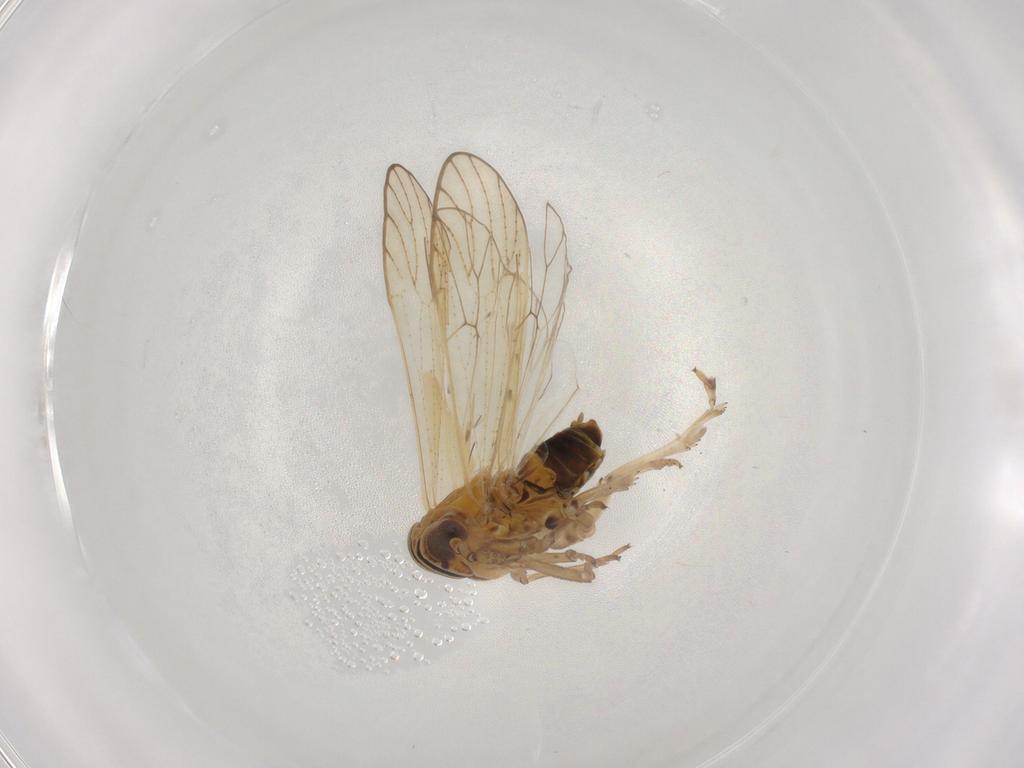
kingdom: Animalia
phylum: Arthropoda
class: Insecta
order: Hemiptera
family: Delphacidae
